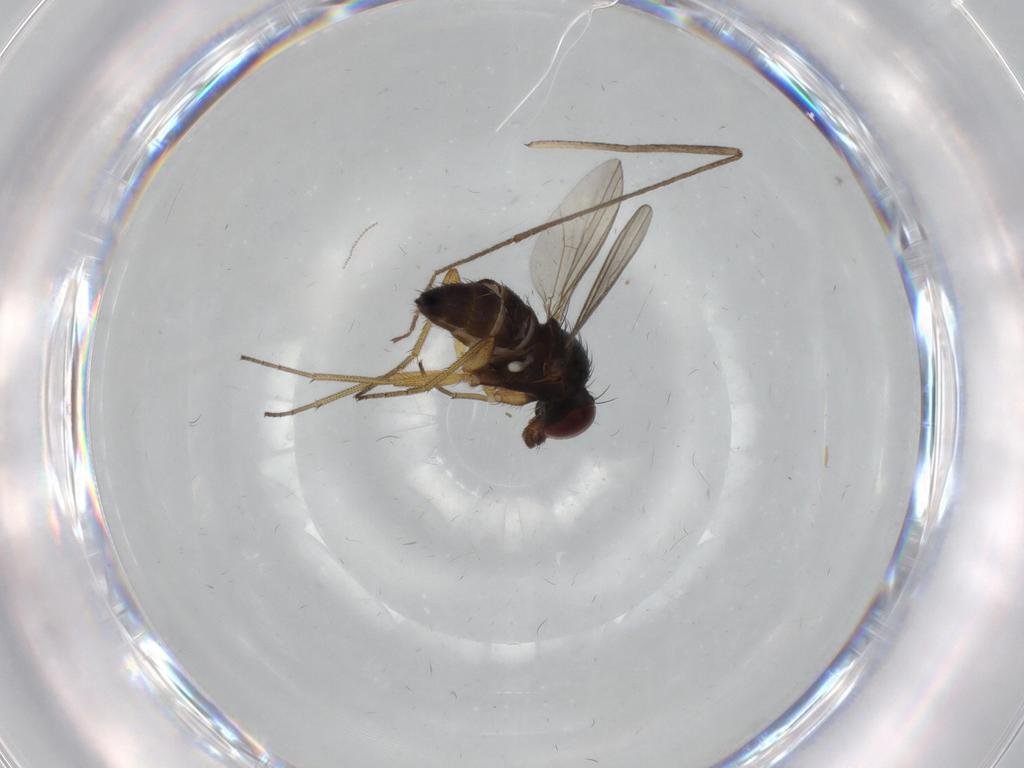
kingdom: Animalia
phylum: Arthropoda
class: Insecta
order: Diptera
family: Dolichopodidae
